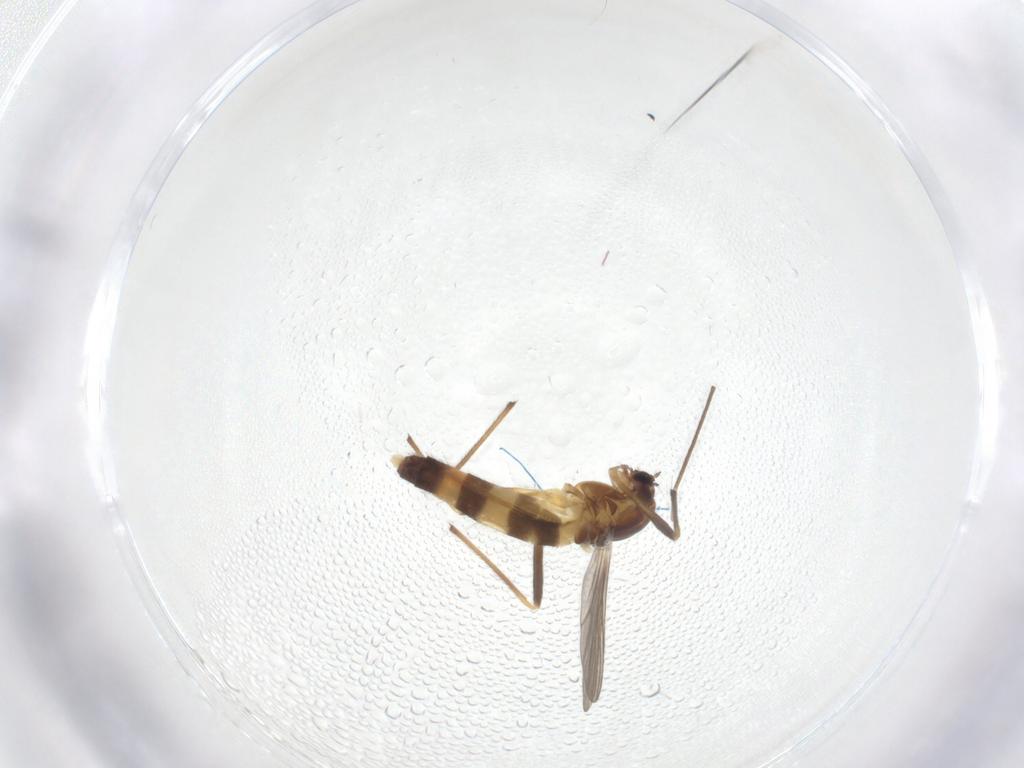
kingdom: Animalia
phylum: Arthropoda
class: Insecta
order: Diptera
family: Chironomidae
